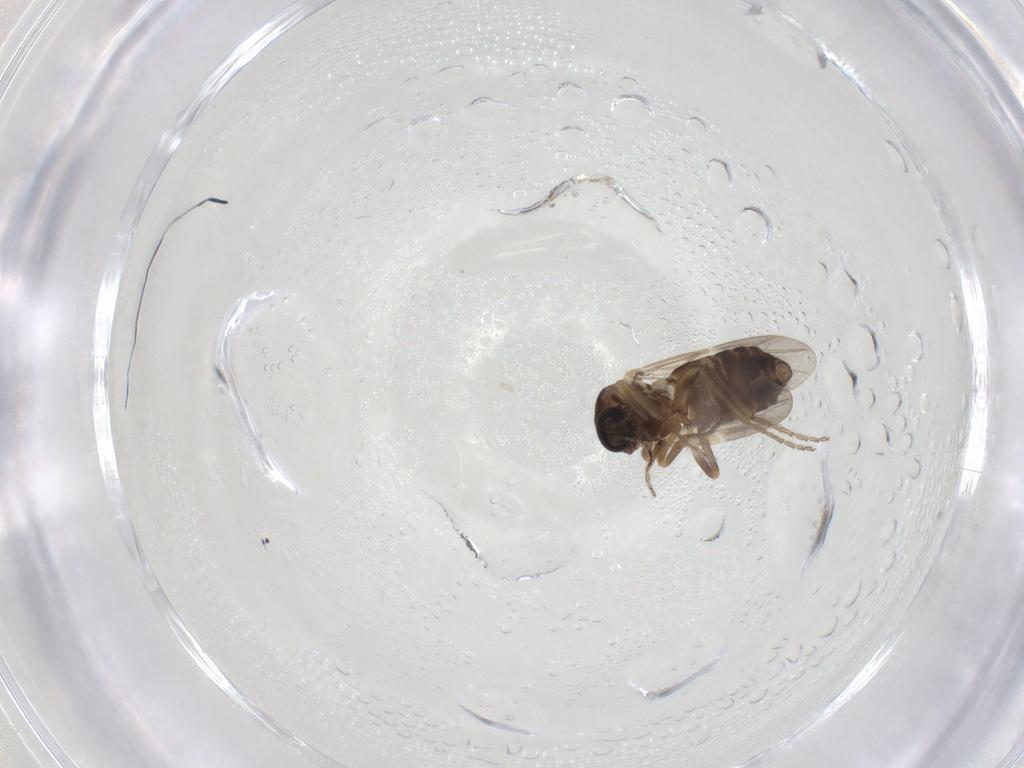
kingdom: Animalia
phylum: Arthropoda
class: Insecta
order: Diptera
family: Ceratopogonidae
